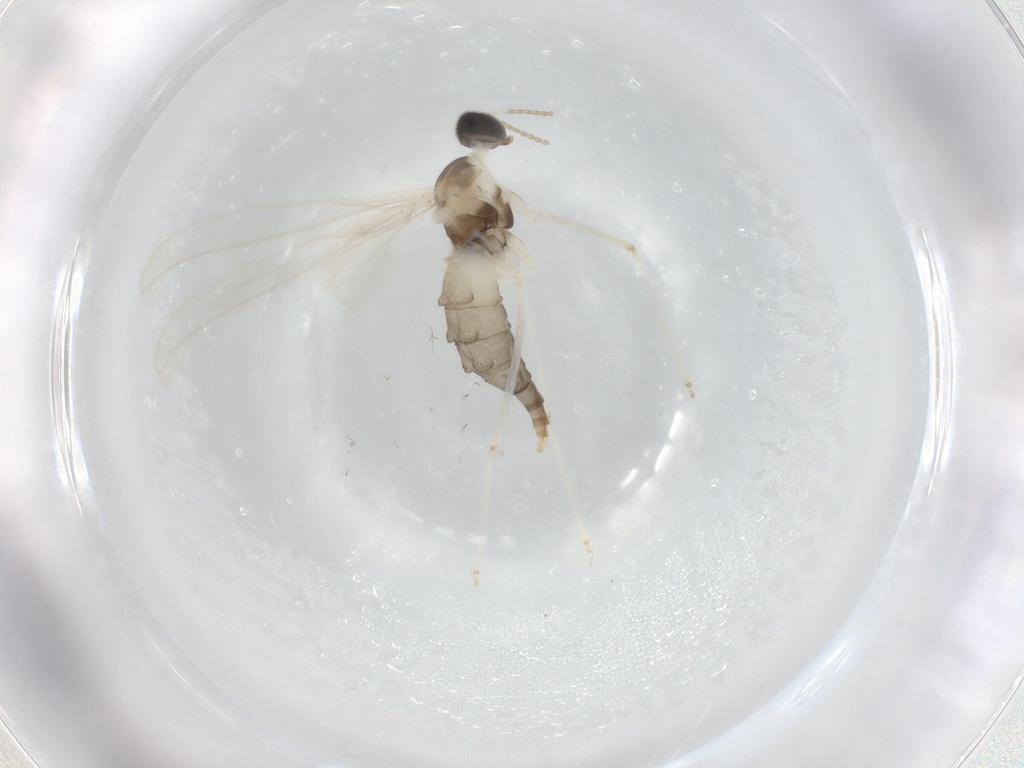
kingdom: Animalia
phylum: Arthropoda
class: Insecta
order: Diptera
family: Cecidomyiidae
